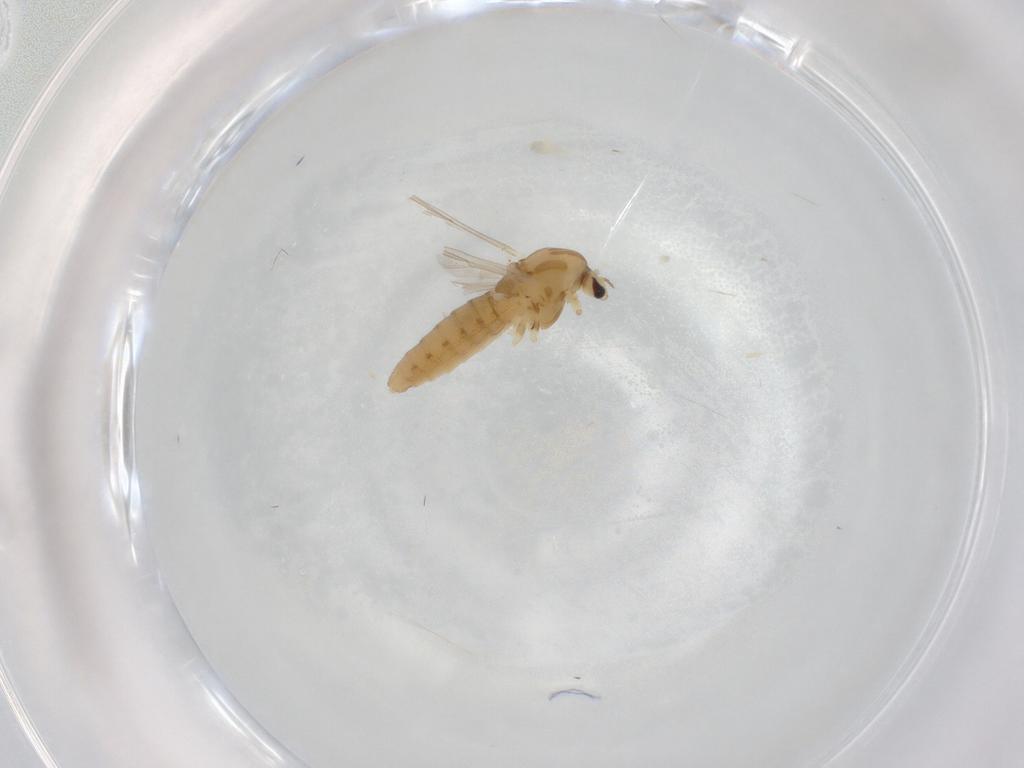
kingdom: Animalia
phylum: Arthropoda
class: Insecta
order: Diptera
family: Chironomidae
